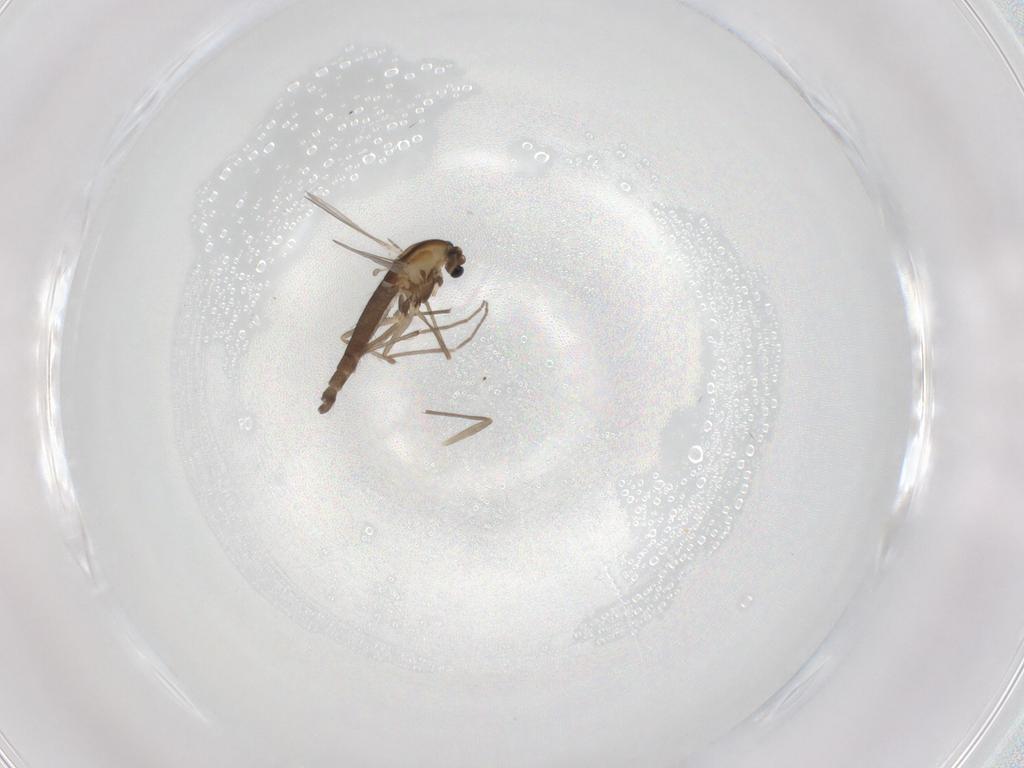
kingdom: Animalia
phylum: Arthropoda
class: Insecta
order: Diptera
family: Chironomidae
